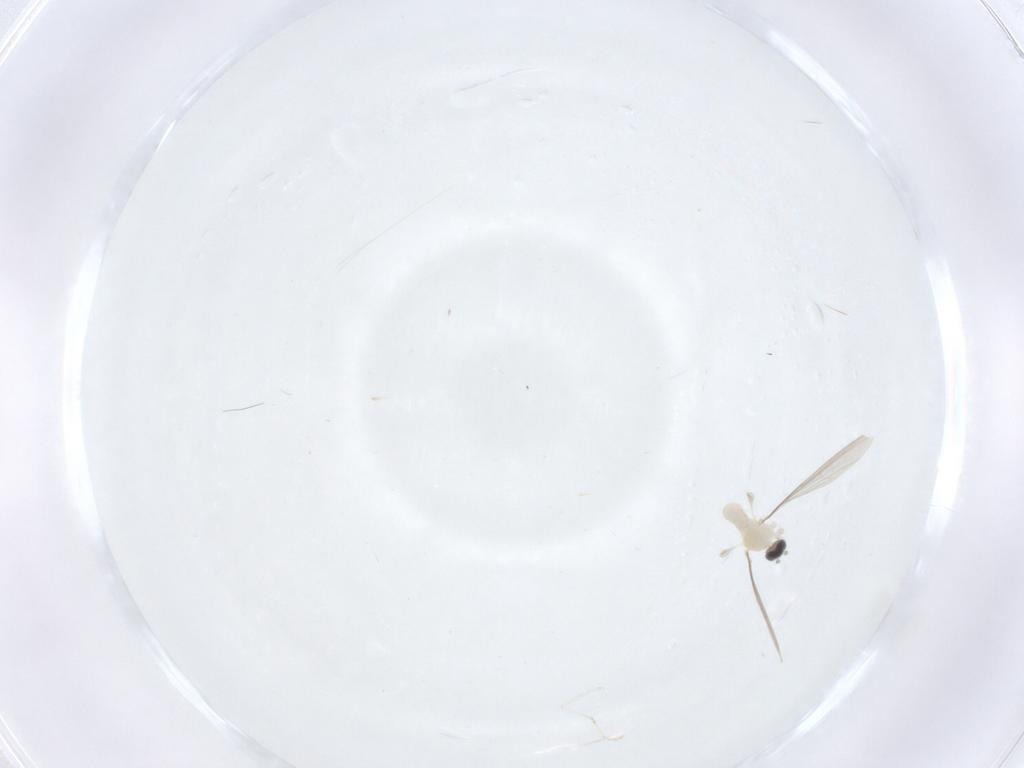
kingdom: Animalia
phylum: Arthropoda
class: Insecta
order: Diptera
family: Cecidomyiidae
